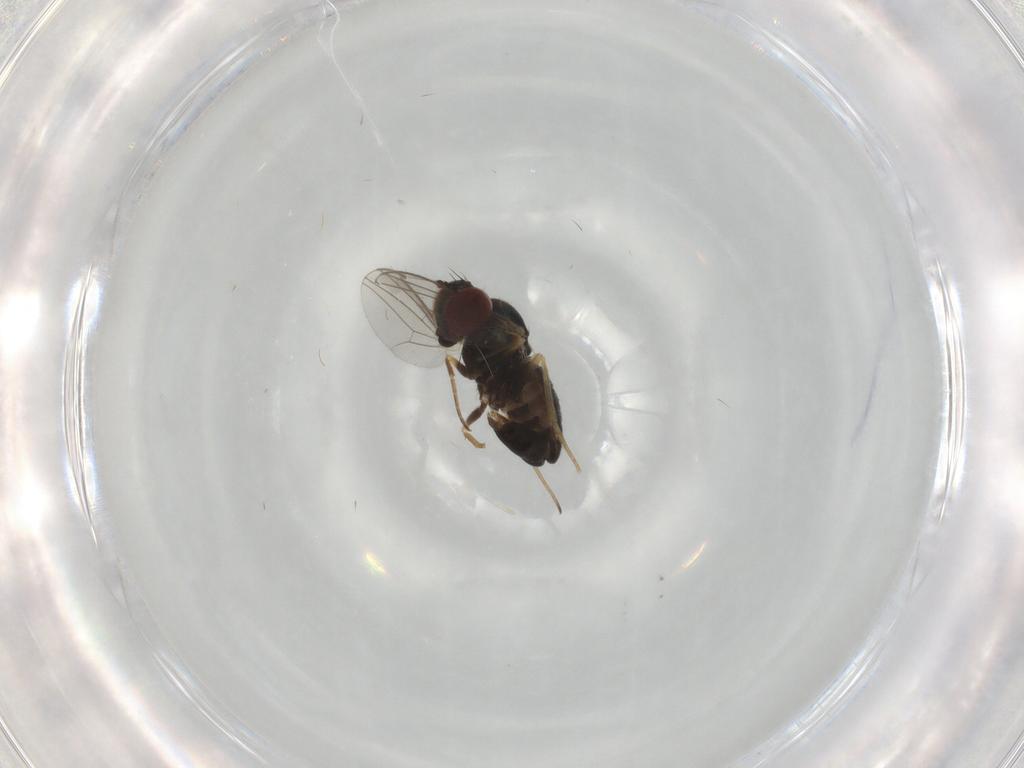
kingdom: Animalia
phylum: Arthropoda
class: Insecta
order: Diptera
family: Dolichopodidae
